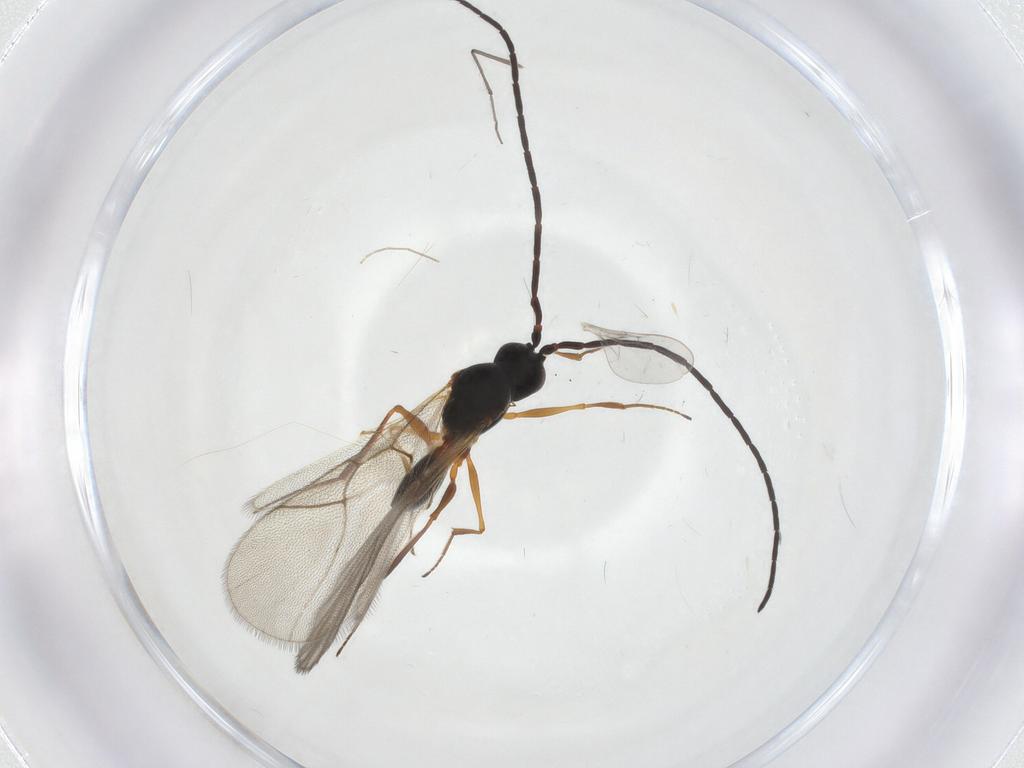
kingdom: Animalia
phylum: Arthropoda
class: Insecta
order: Hymenoptera
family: Figitidae
